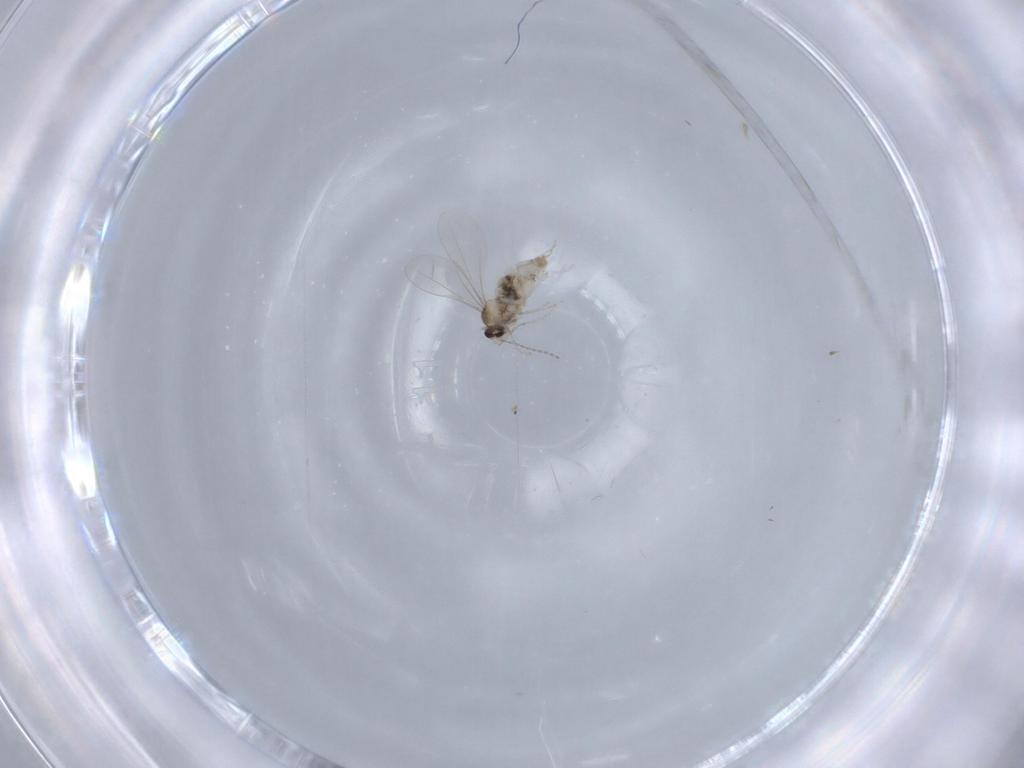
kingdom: Animalia
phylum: Arthropoda
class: Insecta
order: Diptera
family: Cecidomyiidae
